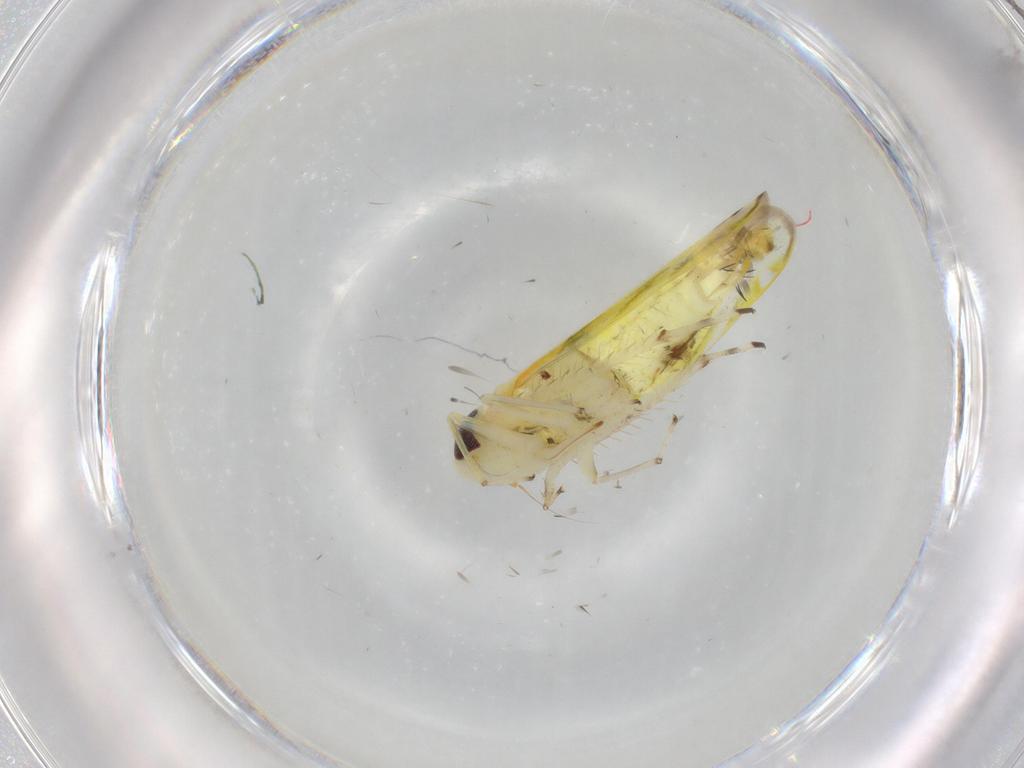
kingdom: Animalia
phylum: Arthropoda
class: Insecta
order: Hemiptera
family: Cicadellidae
